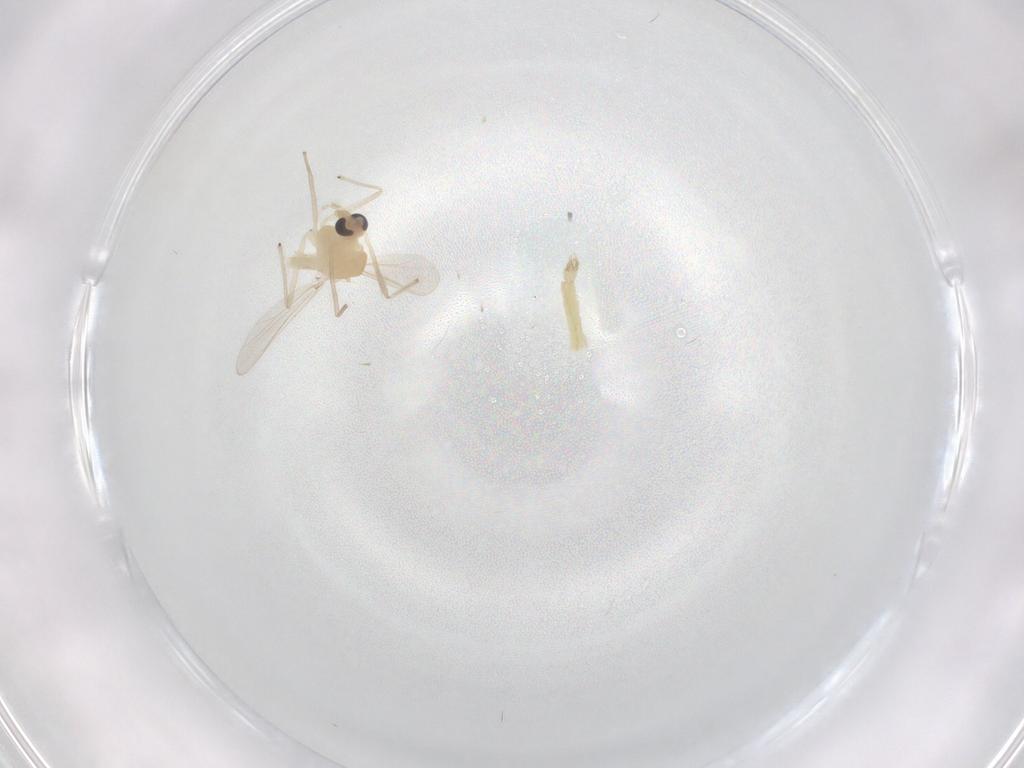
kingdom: Animalia
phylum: Arthropoda
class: Insecta
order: Diptera
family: Chironomidae
